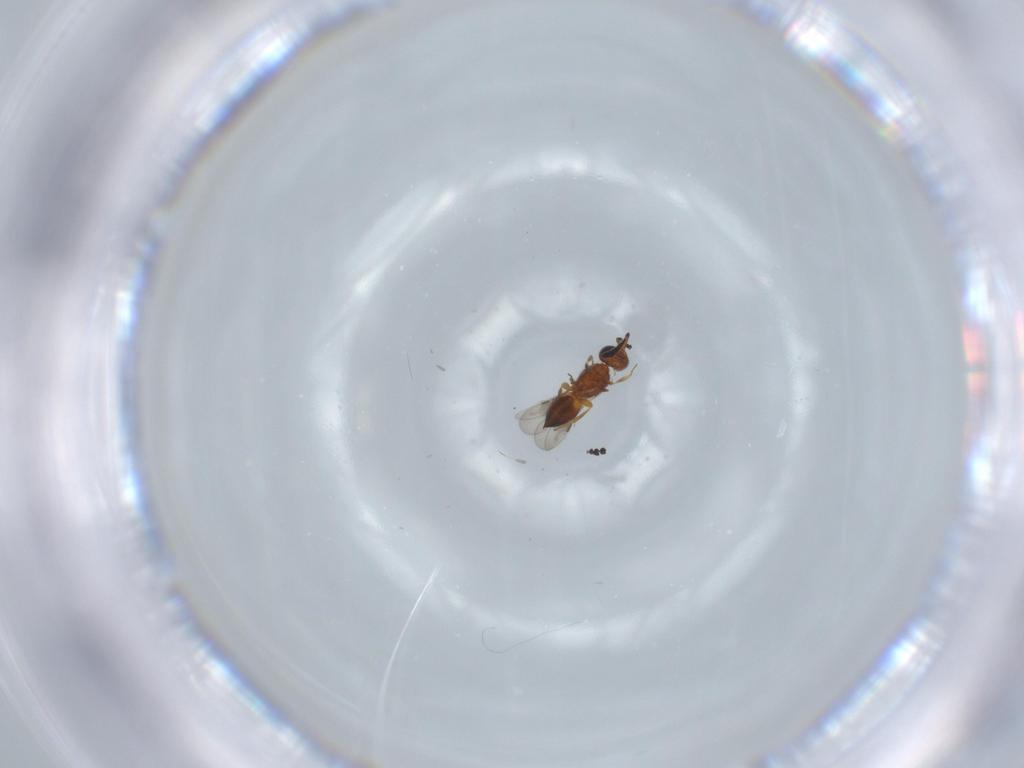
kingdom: Animalia
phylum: Arthropoda
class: Insecta
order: Hymenoptera
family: Ceraphronidae
